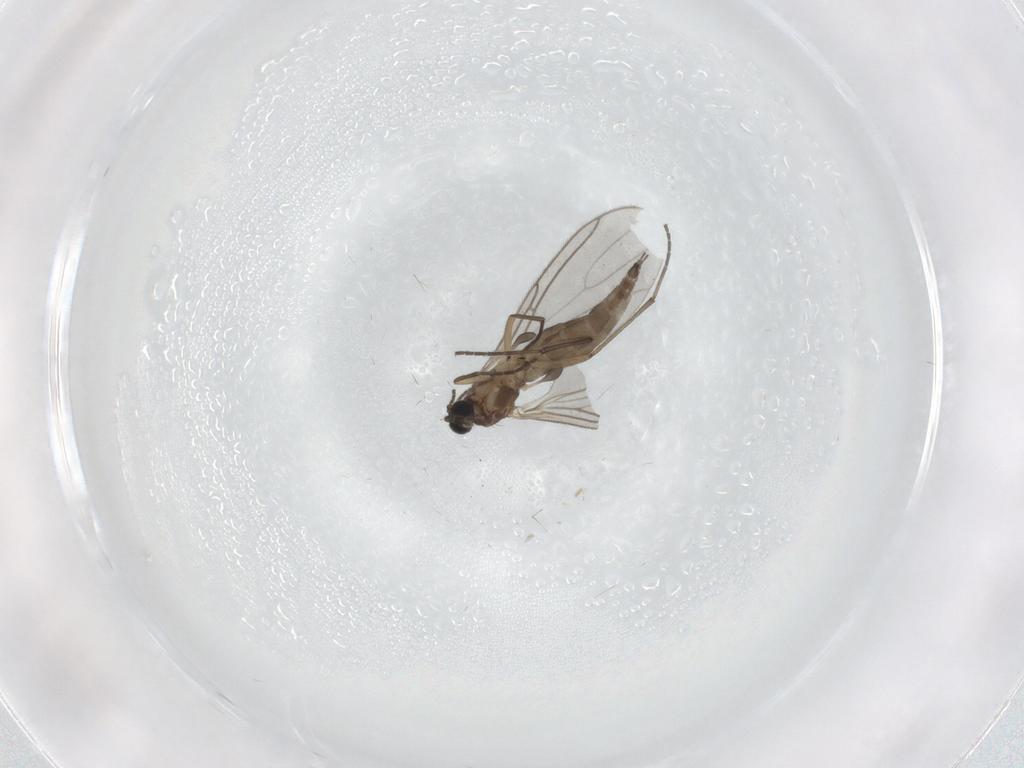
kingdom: Animalia
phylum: Arthropoda
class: Insecta
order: Diptera
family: Sciaridae
